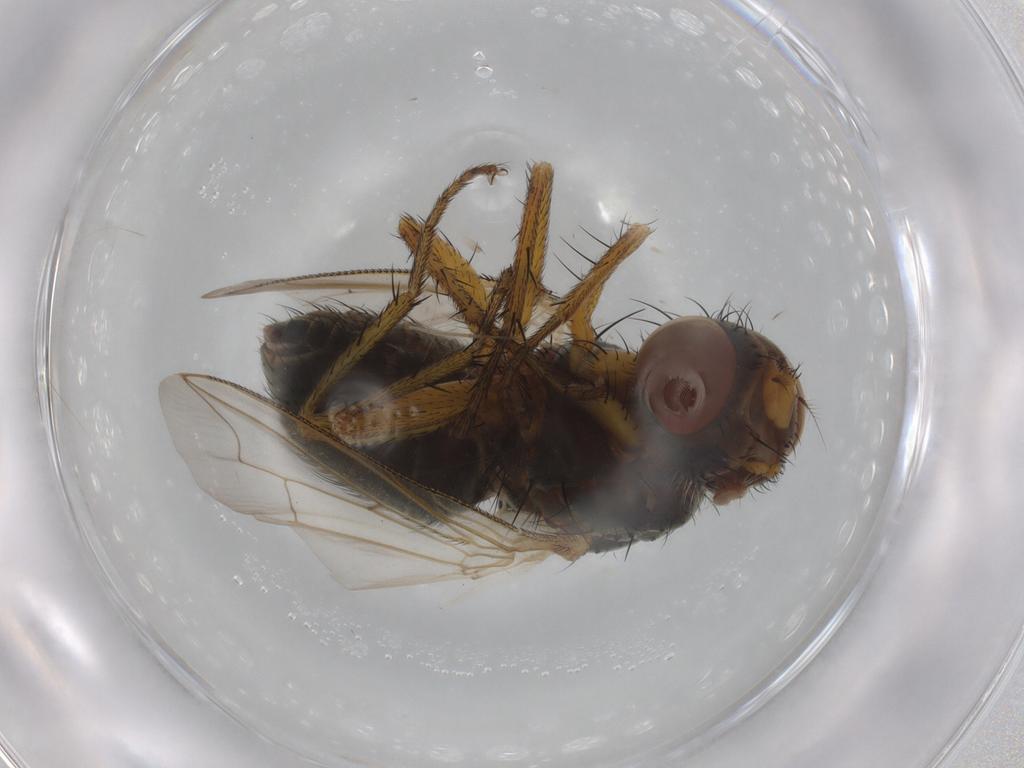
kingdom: Animalia
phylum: Arthropoda
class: Insecta
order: Diptera
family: Sarcophagidae
